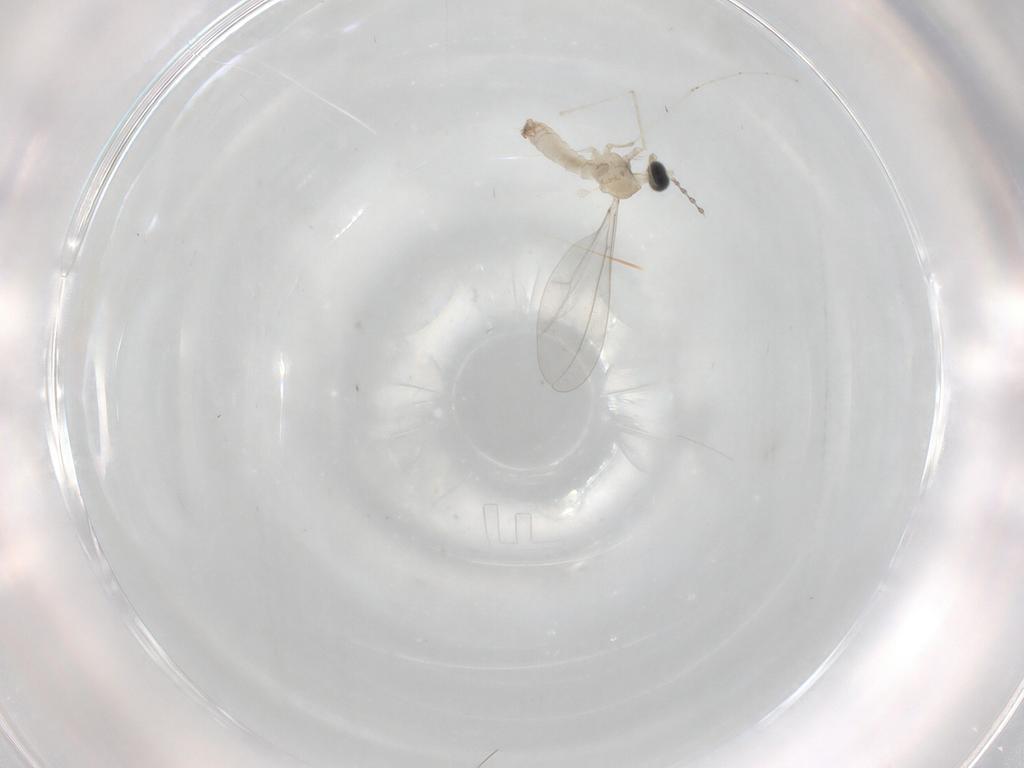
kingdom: Animalia
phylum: Arthropoda
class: Insecta
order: Diptera
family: Cecidomyiidae
